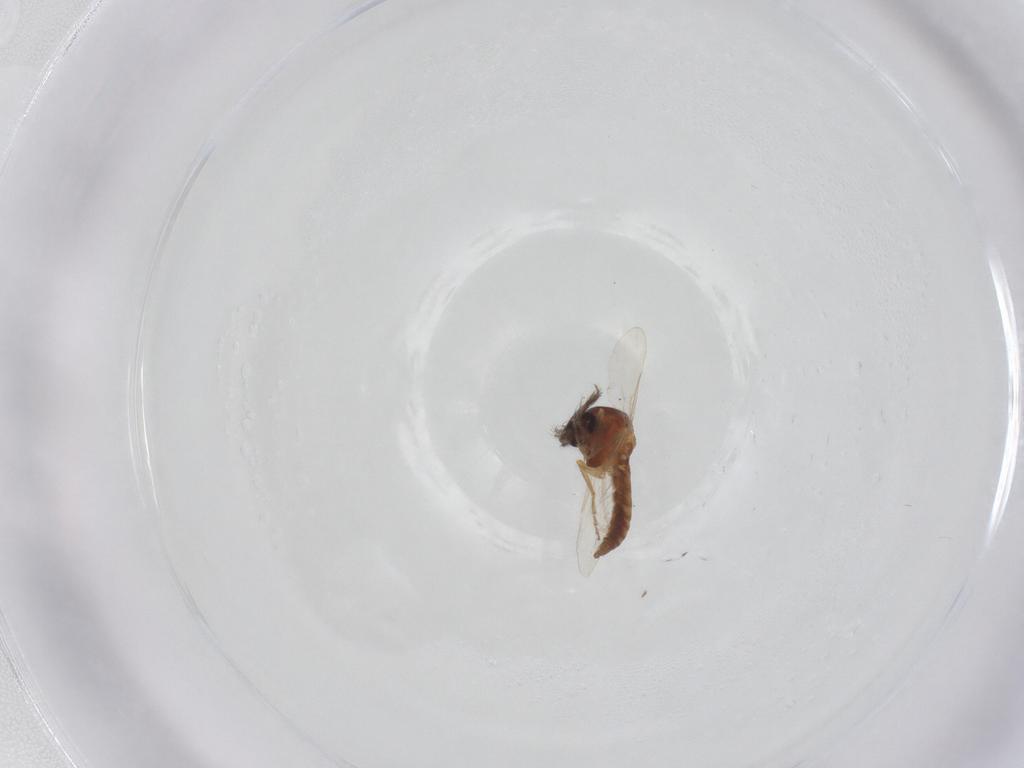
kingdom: Animalia
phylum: Arthropoda
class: Insecta
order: Diptera
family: Ceratopogonidae
